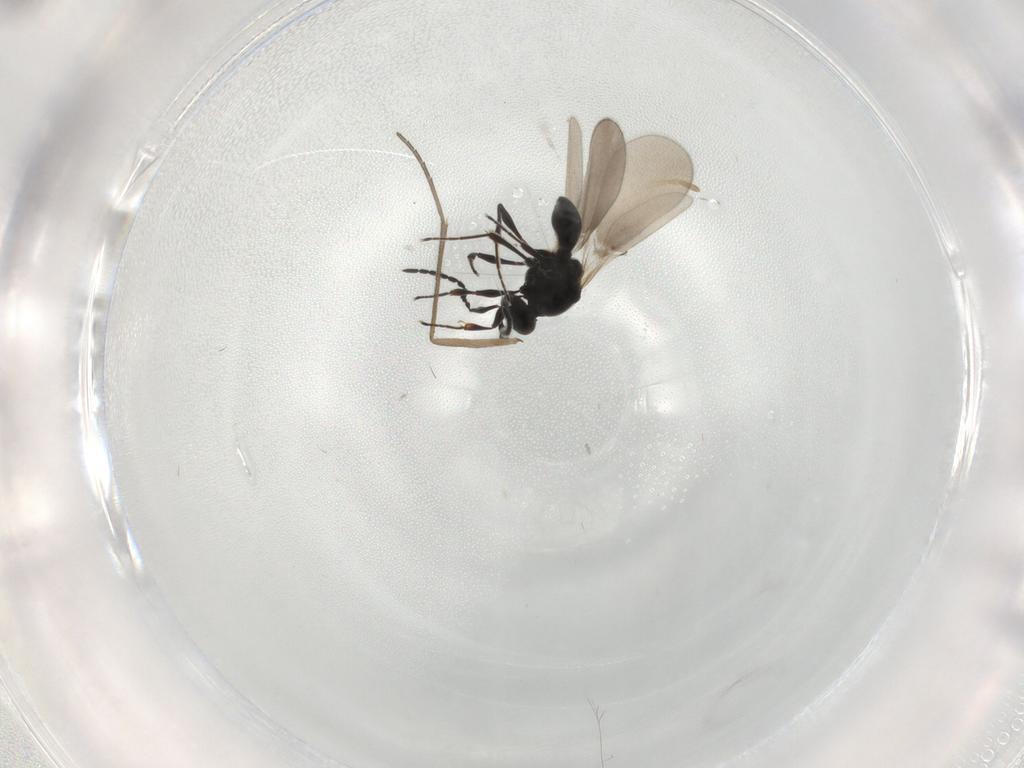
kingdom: Animalia
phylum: Arthropoda
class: Insecta
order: Hymenoptera
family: Platygastridae
